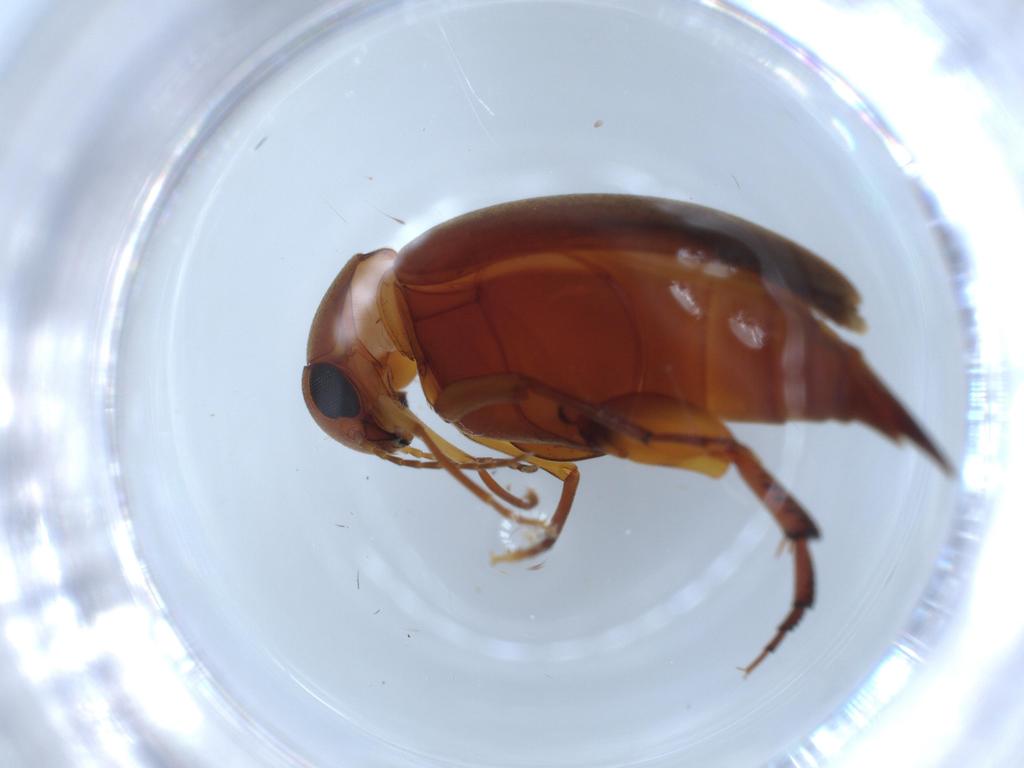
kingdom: Animalia
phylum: Arthropoda
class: Insecta
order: Coleoptera
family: Mordellidae
